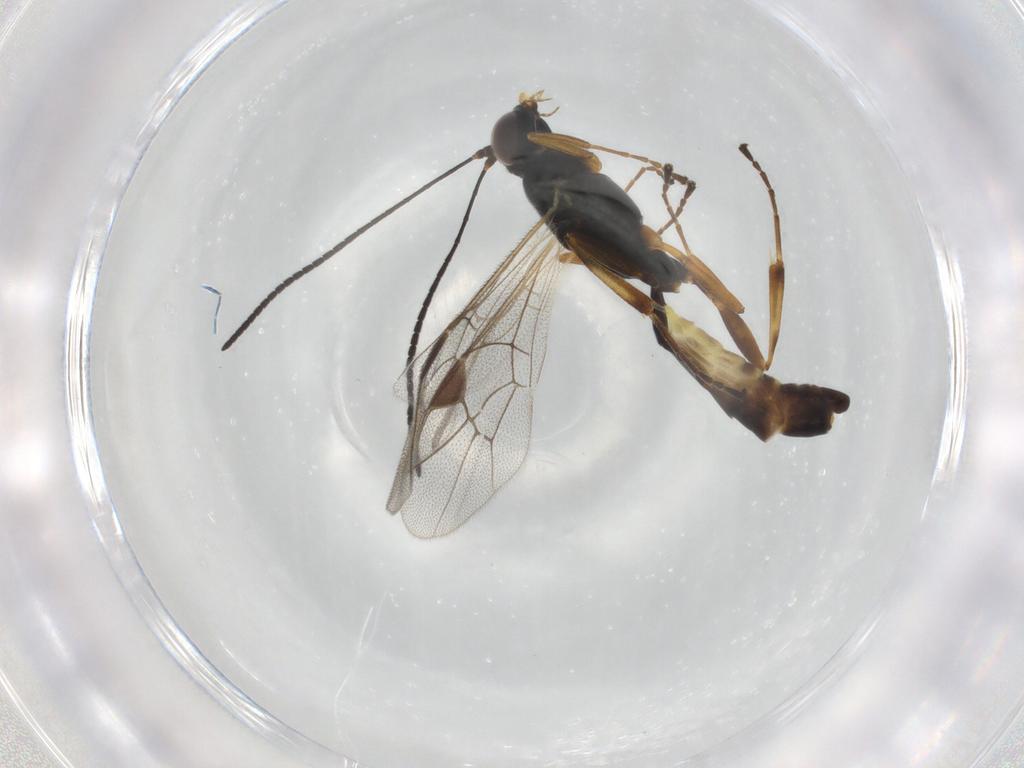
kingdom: Animalia
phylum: Arthropoda
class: Insecta
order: Hymenoptera
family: Ichneumonidae
